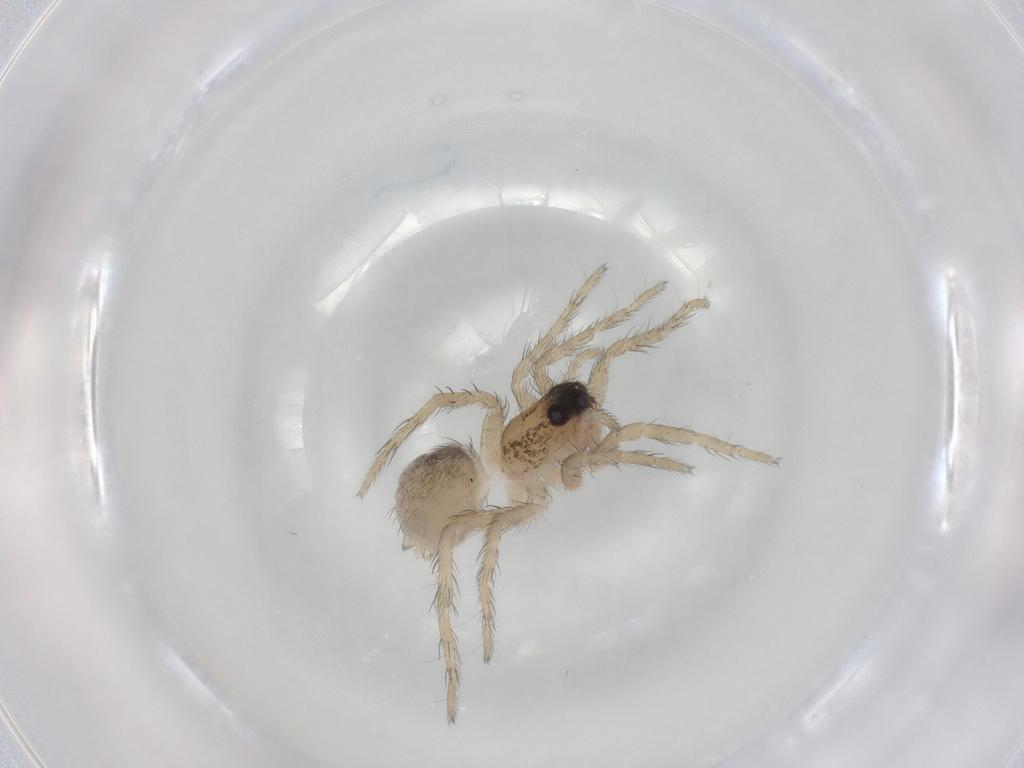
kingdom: Animalia
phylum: Arthropoda
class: Arachnida
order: Araneae
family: Lycosidae
